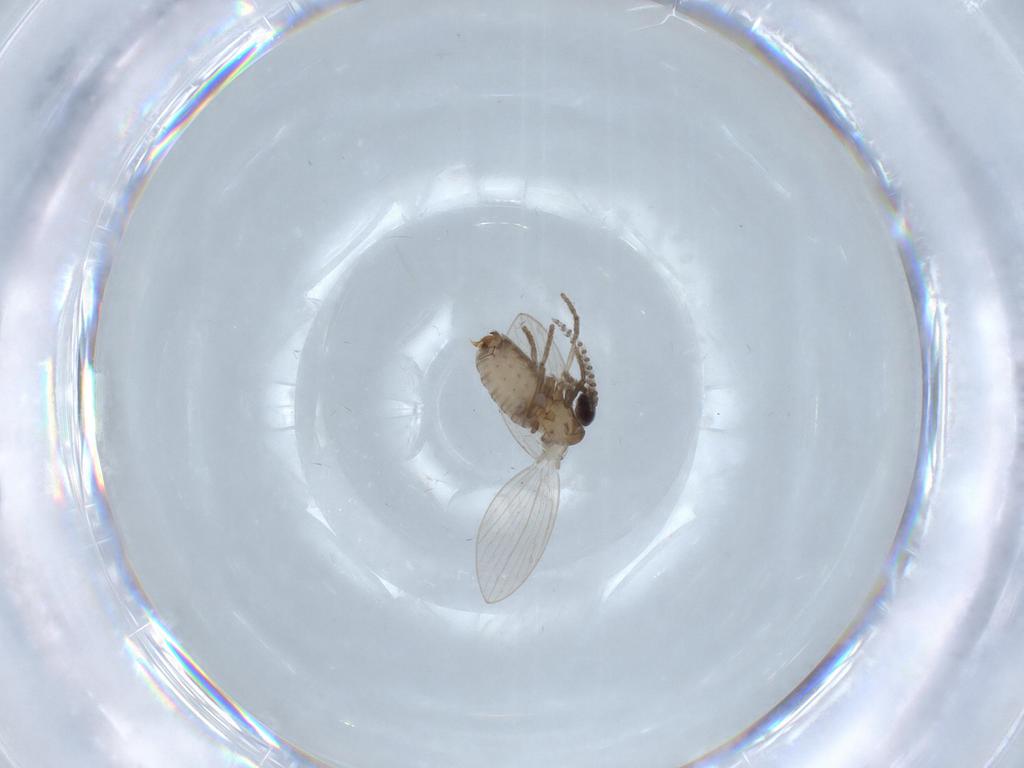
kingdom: Animalia
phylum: Arthropoda
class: Insecta
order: Diptera
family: Psychodidae
